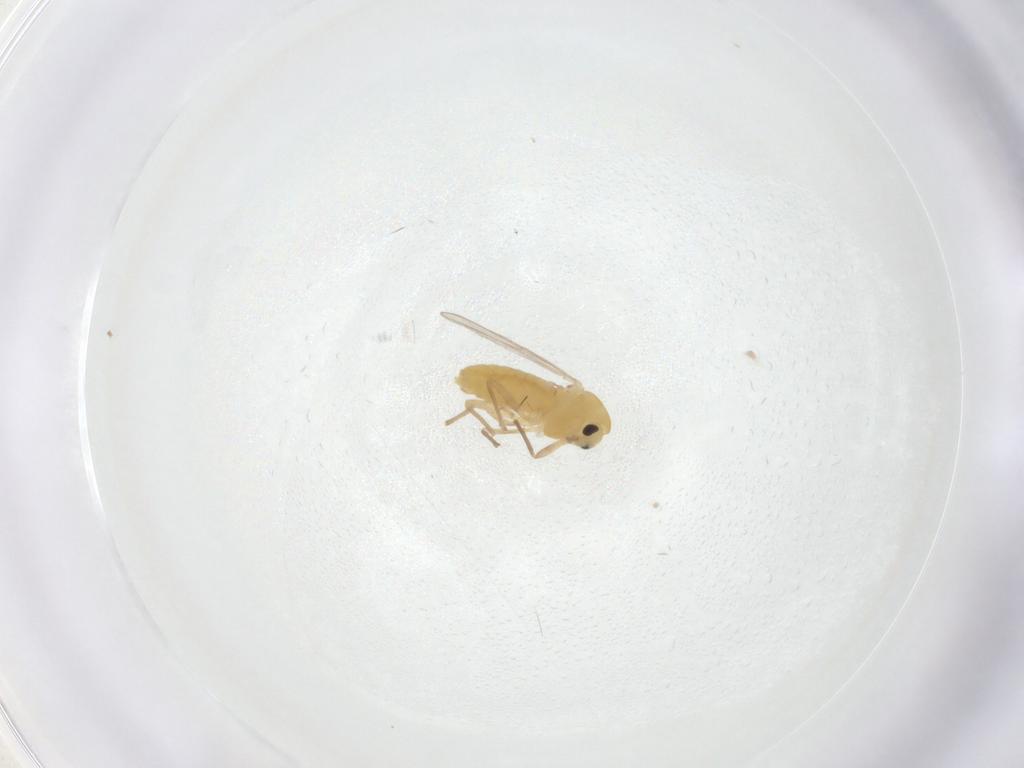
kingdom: Animalia
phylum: Arthropoda
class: Insecta
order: Diptera
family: Chironomidae
